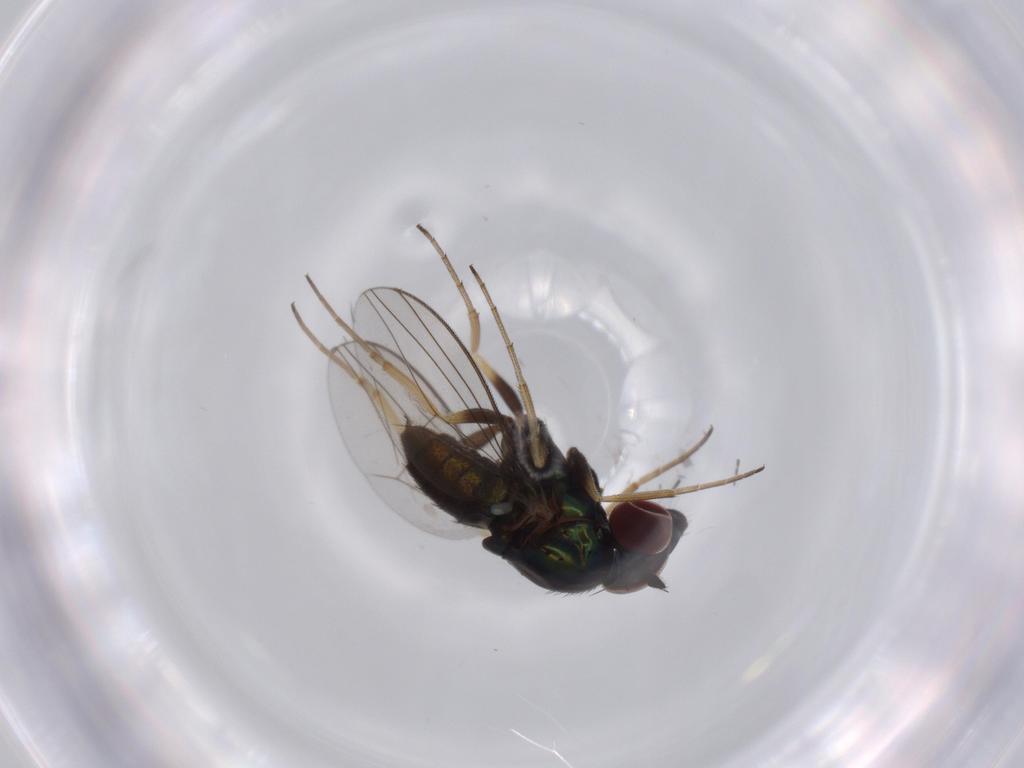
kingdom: Animalia
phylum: Arthropoda
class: Insecta
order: Diptera
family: Dolichopodidae
